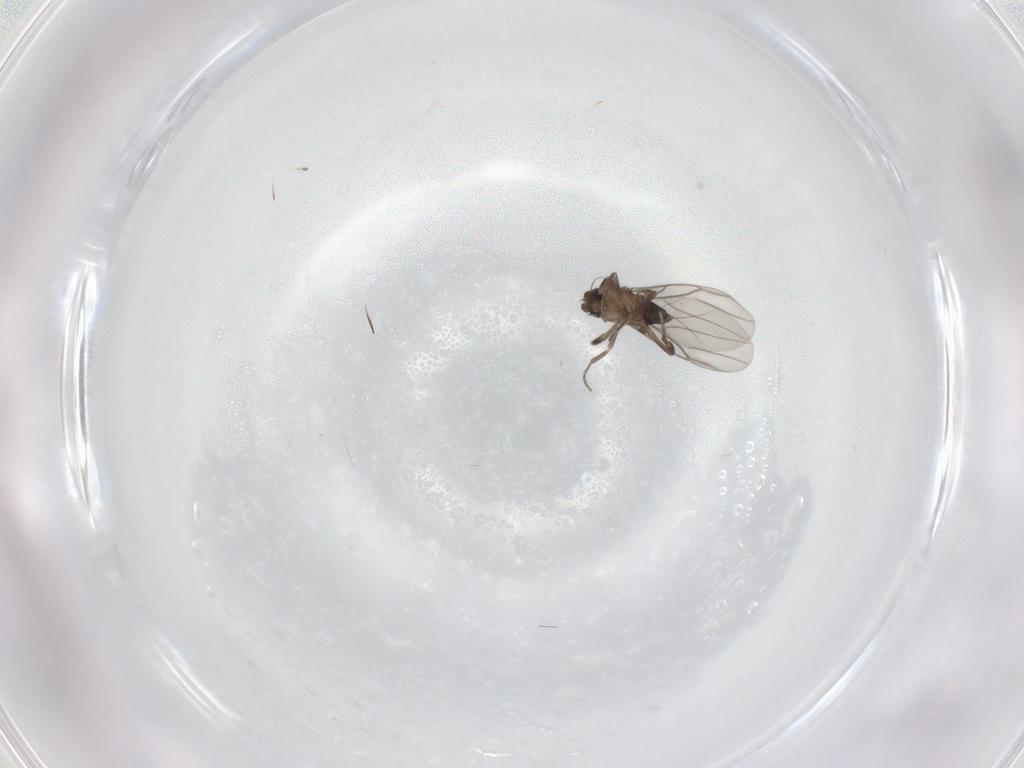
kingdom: Animalia
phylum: Arthropoda
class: Insecta
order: Diptera
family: Phoridae
